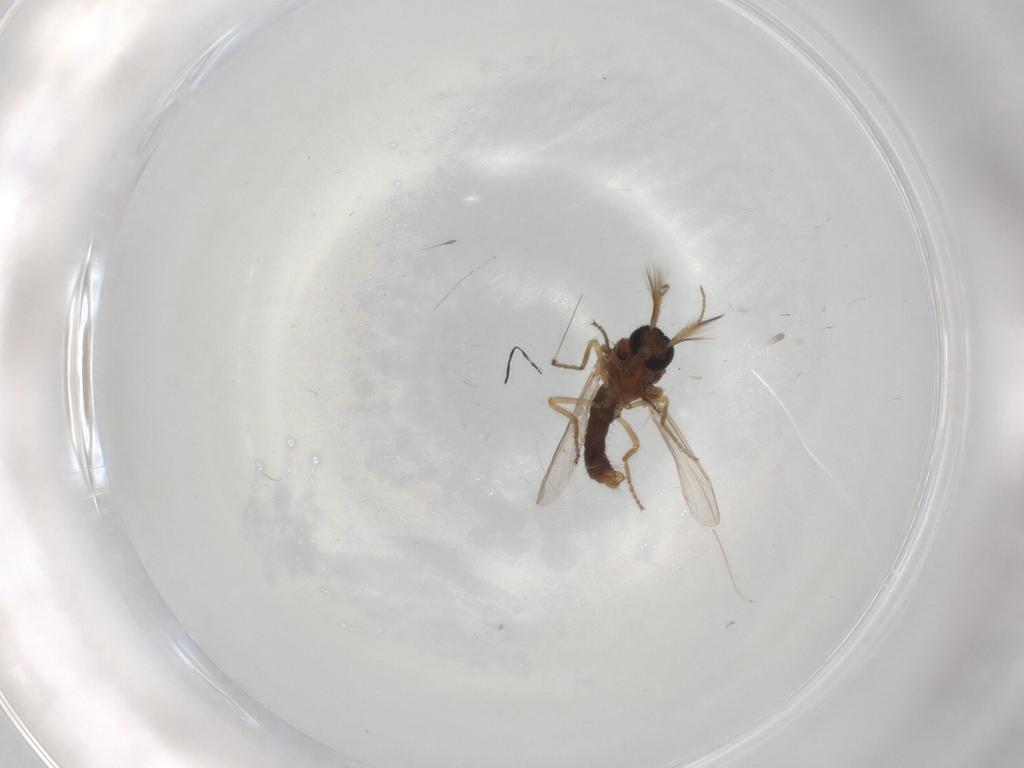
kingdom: Animalia
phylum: Arthropoda
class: Insecta
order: Diptera
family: Ceratopogonidae
